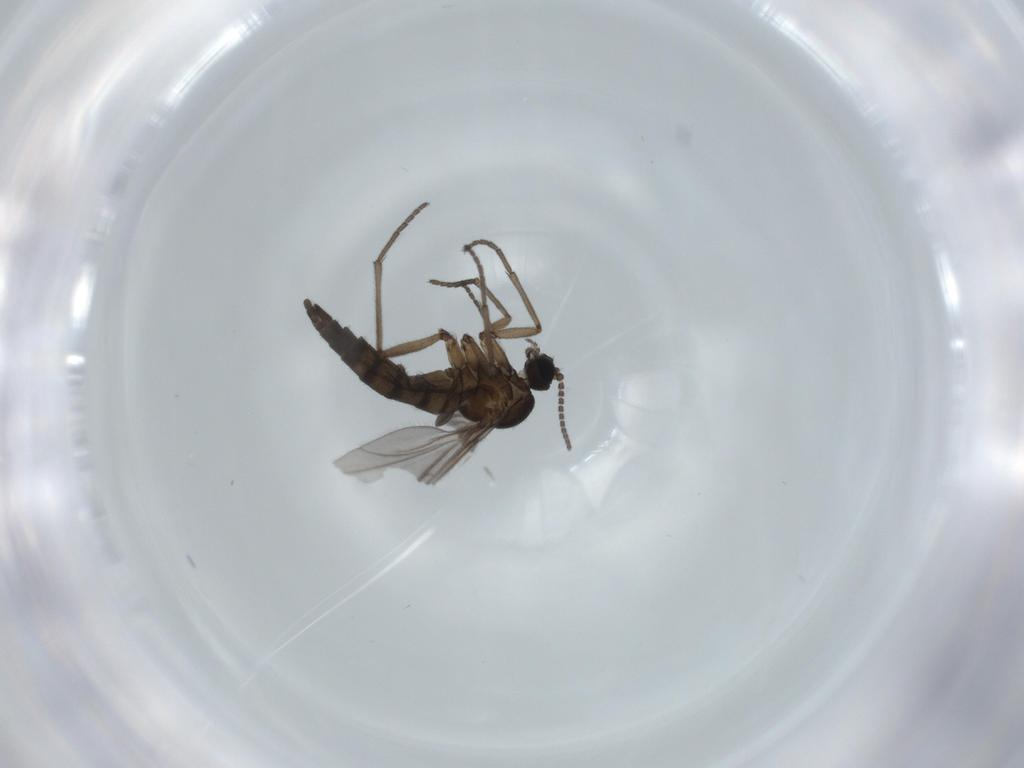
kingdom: Animalia
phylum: Arthropoda
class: Insecta
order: Diptera
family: Sciaridae
